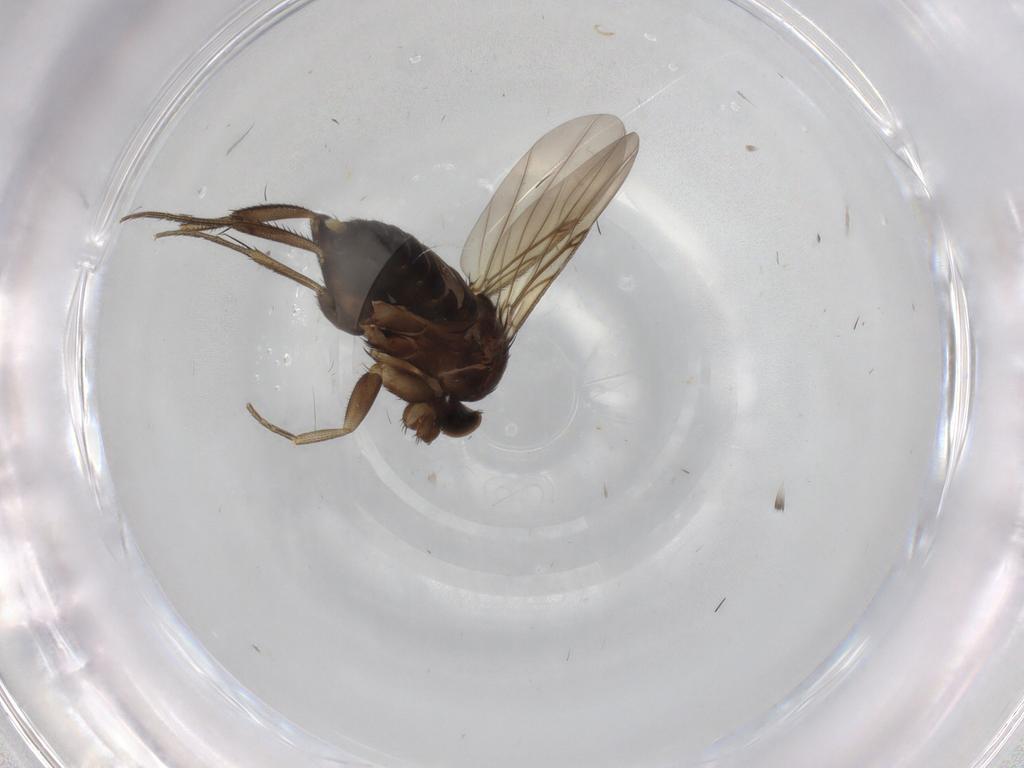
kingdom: Animalia
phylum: Arthropoda
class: Insecta
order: Diptera
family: Phoridae
